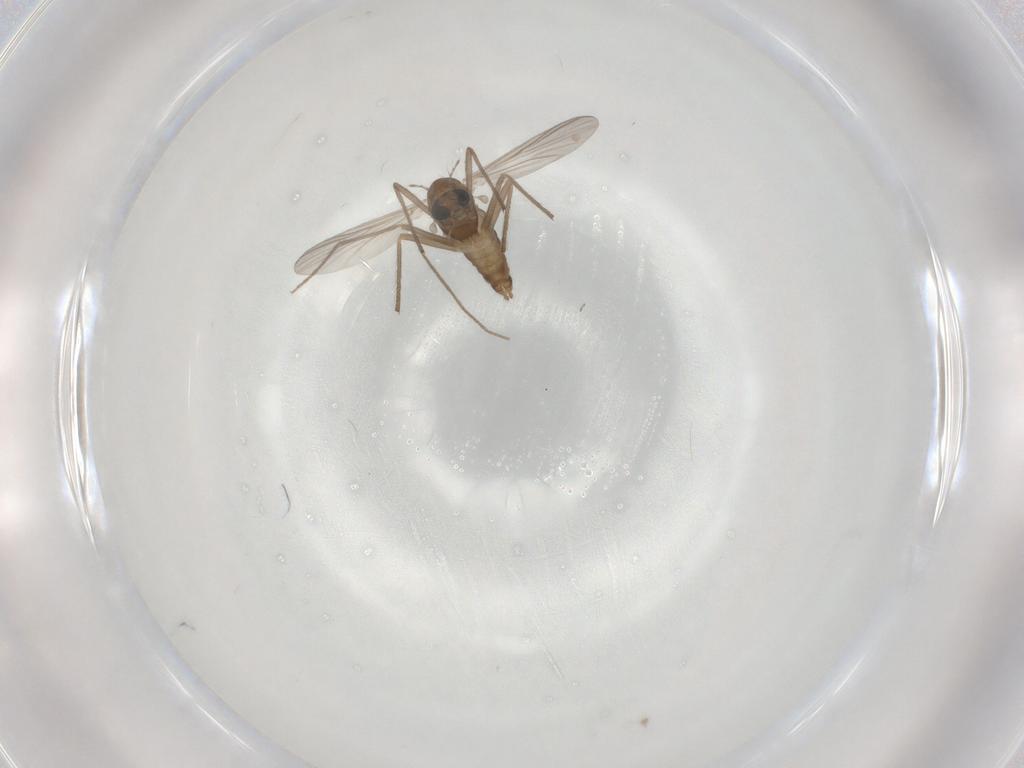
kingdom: Animalia
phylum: Arthropoda
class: Insecta
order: Diptera
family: Chironomidae
